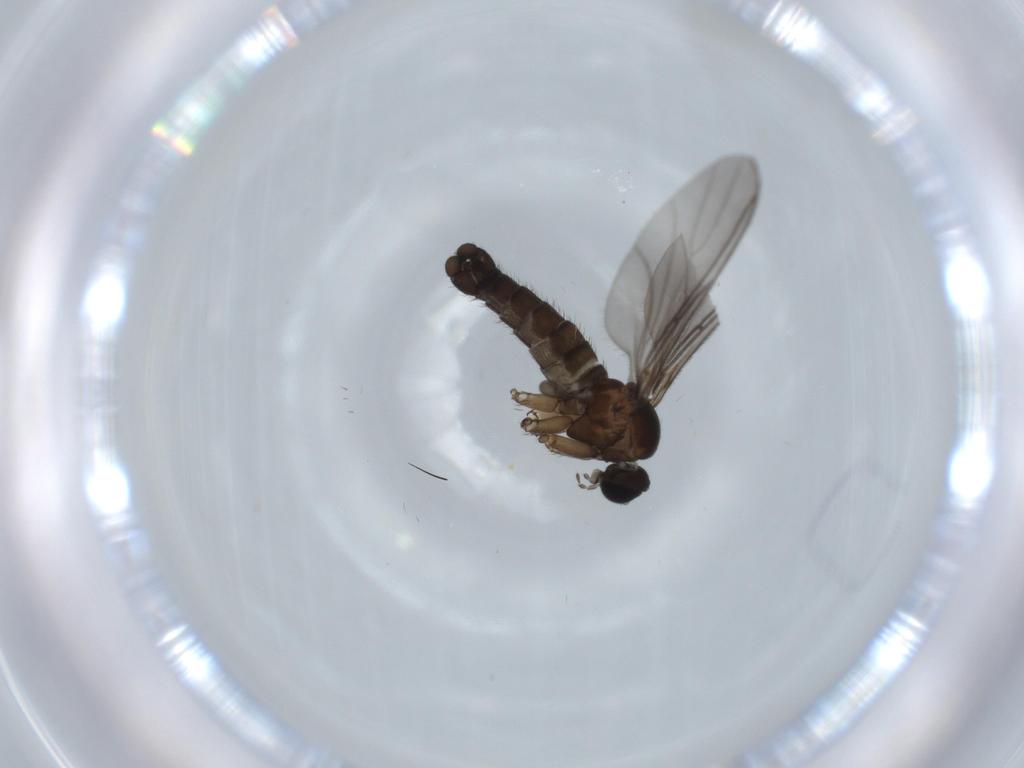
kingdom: Animalia
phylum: Arthropoda
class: Insecta
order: Diptera
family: Sciaridae
